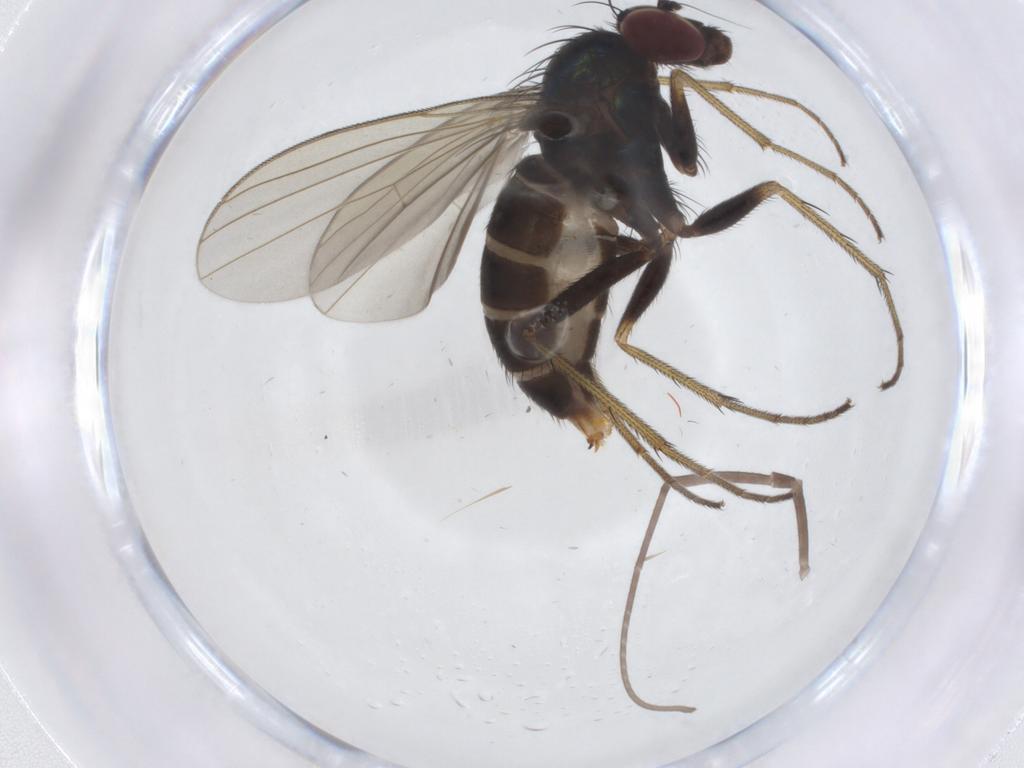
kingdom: Animalia
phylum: Arthropoda
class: Insecta
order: Diptera
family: Dolichopodidae
